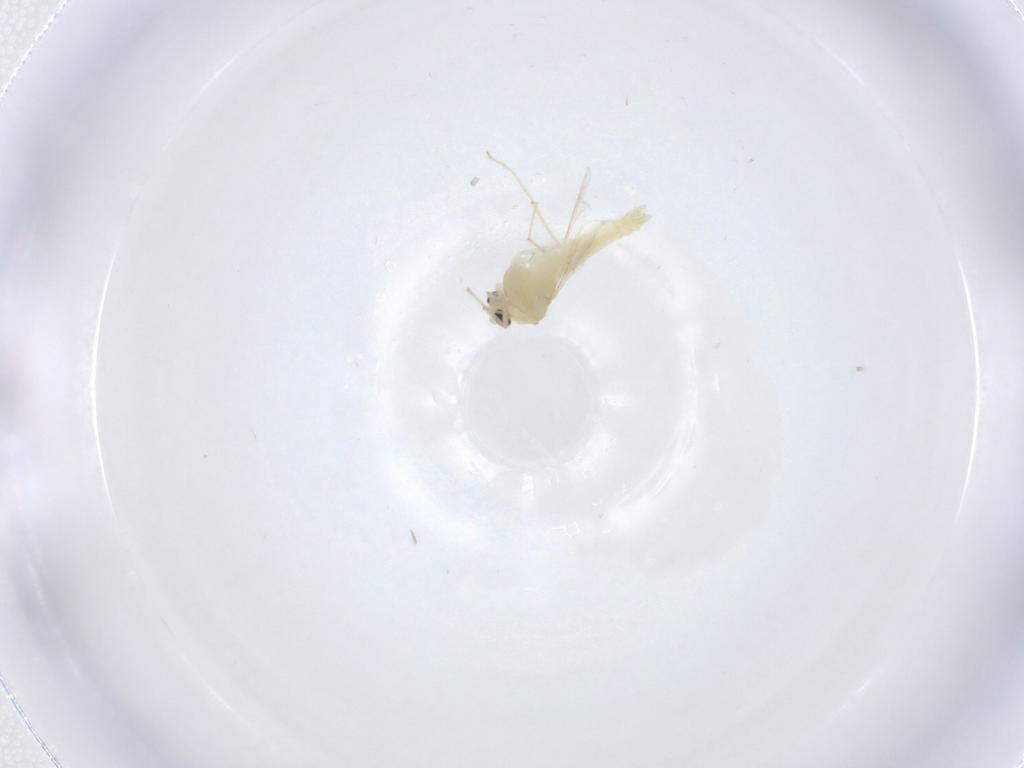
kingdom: Animalia
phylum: Arthropoda
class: Insecta
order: Diptera
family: Chironomidae
